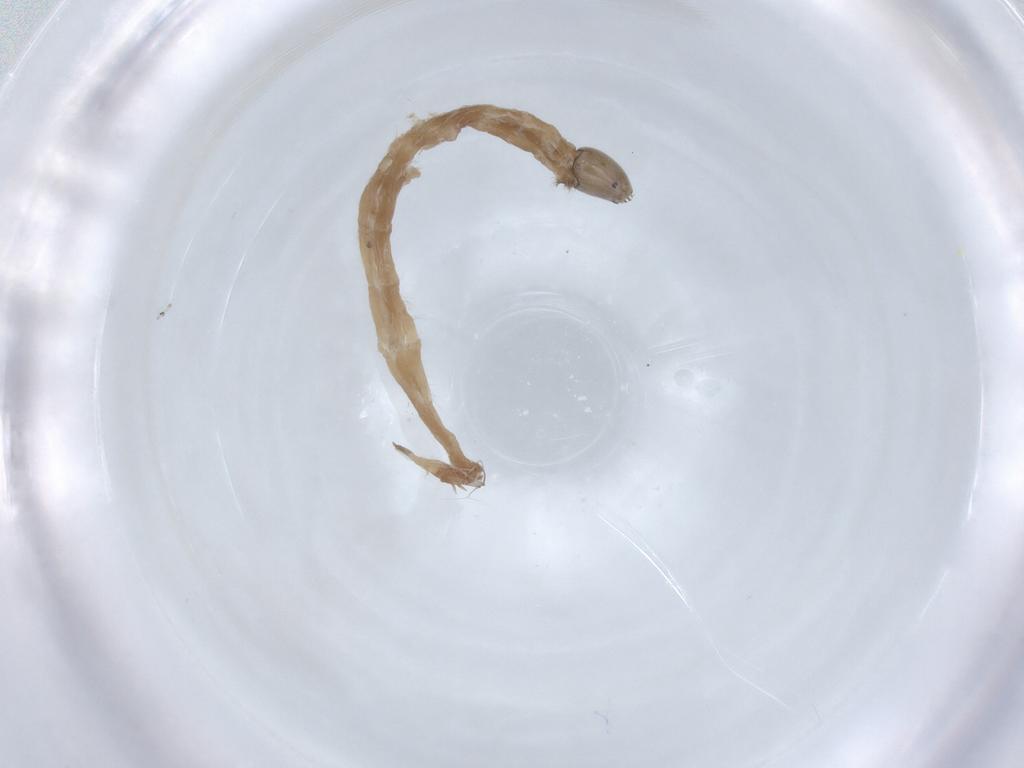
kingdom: Animalia
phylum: Arthropoda
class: Insecta
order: Diptera
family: Chironomidae
